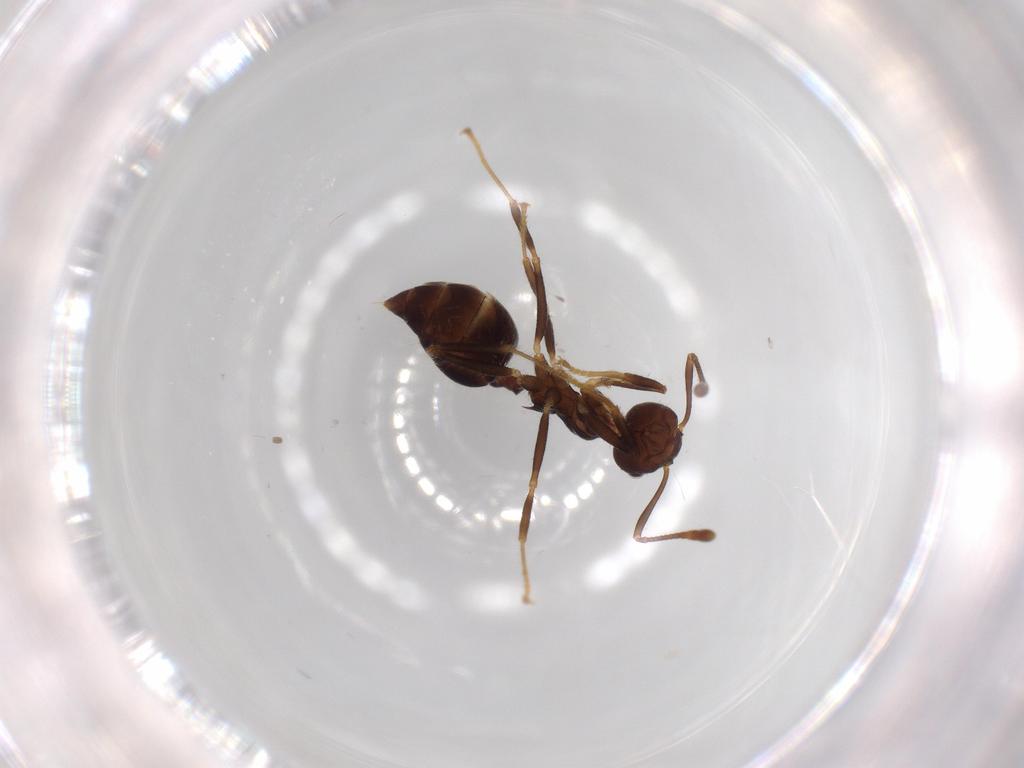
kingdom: Animalia
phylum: Arthropoda
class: Insecta
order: Hymenoptera
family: Formicidae
